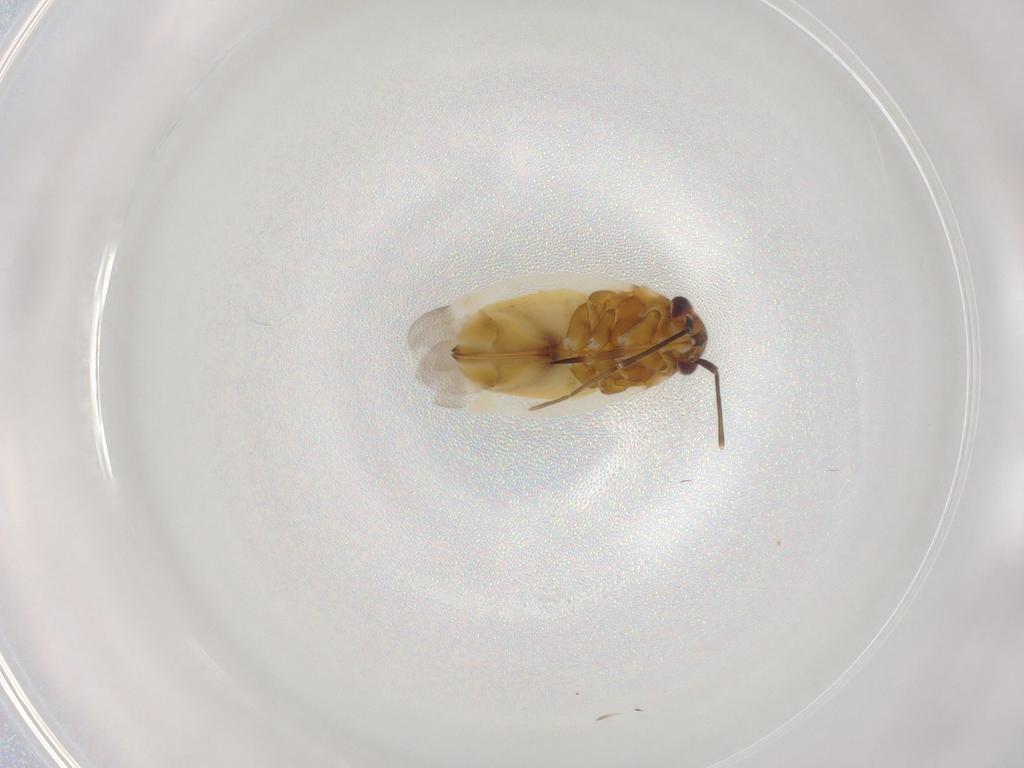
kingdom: Animalia
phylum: Arthropoda
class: Insecta
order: Hemiptera
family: Miridae
